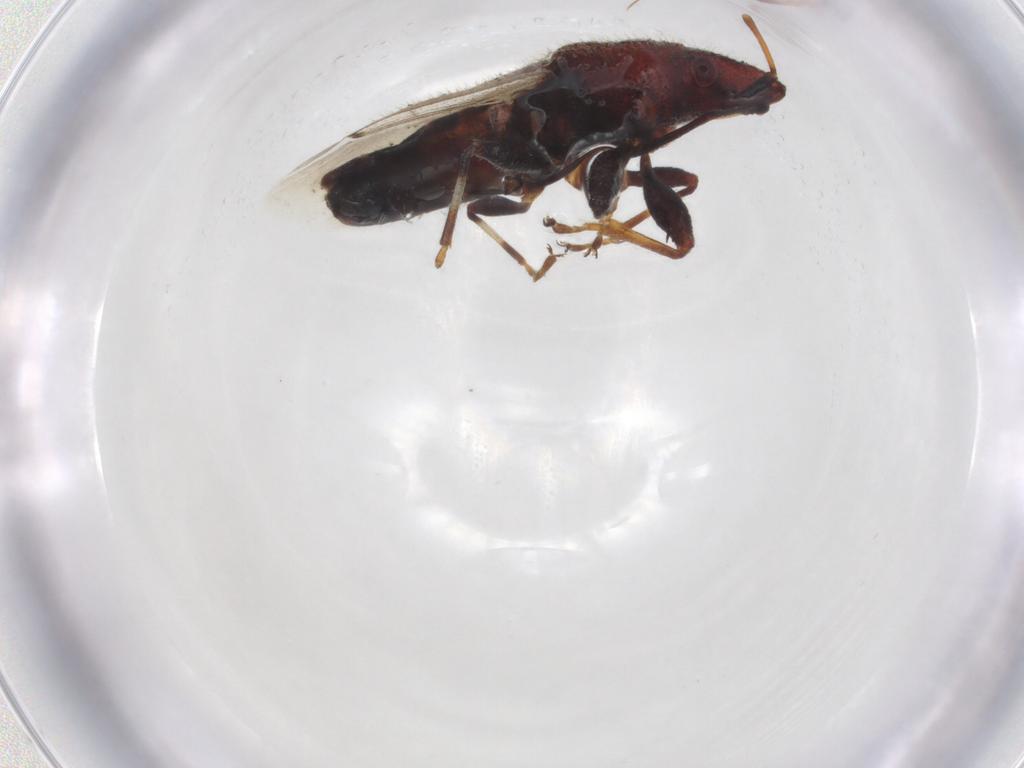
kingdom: Animalia
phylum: Arthropoda
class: Insecta
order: Hemiptera
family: Oxycarenidae
